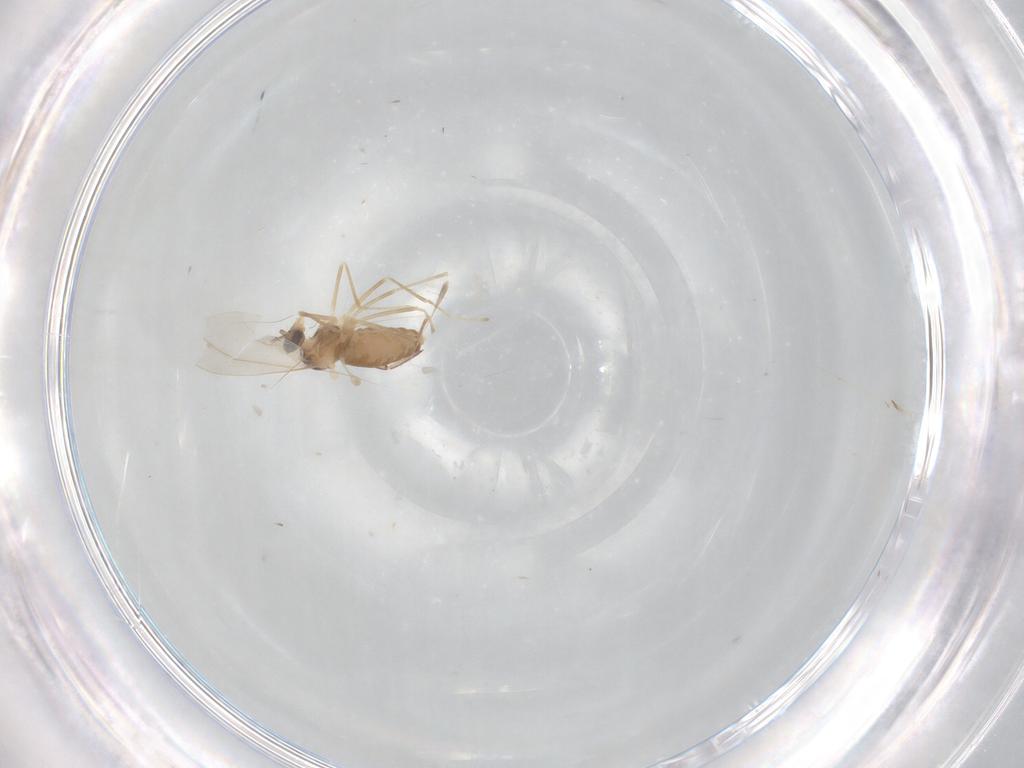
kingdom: Animalia
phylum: Arthropoda
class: Insecta
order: Diptera
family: Cecidomyiidae
